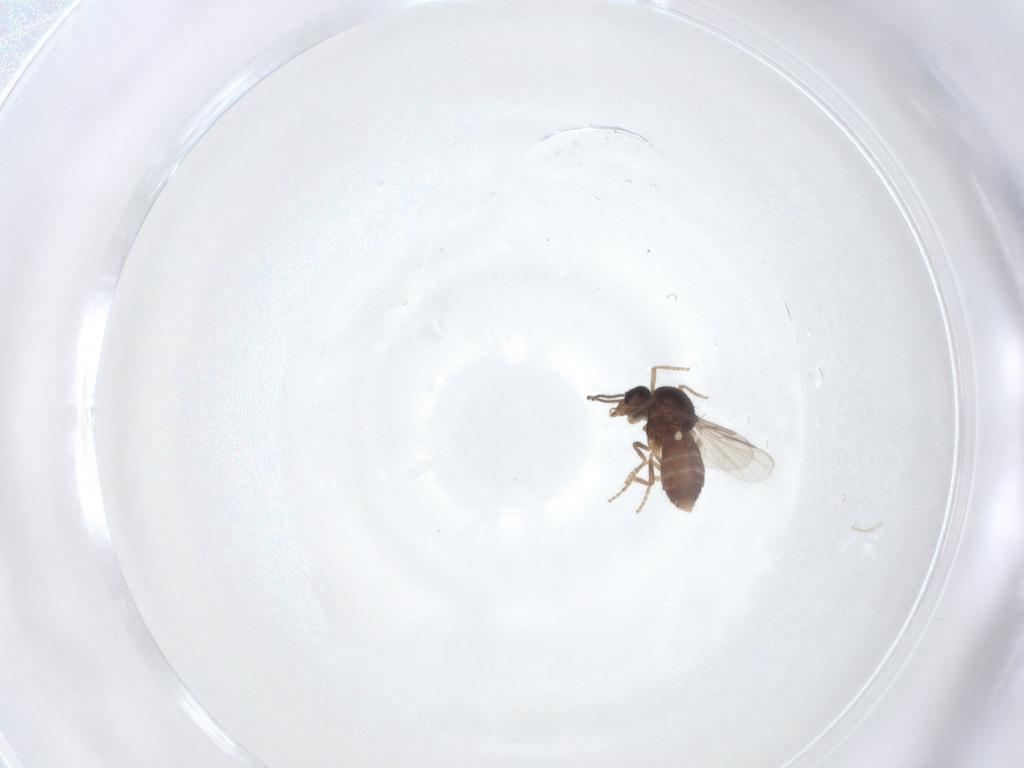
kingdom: Animalia
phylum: Arthropoda
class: Insecta
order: Diptera
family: Ceratopogonidae
